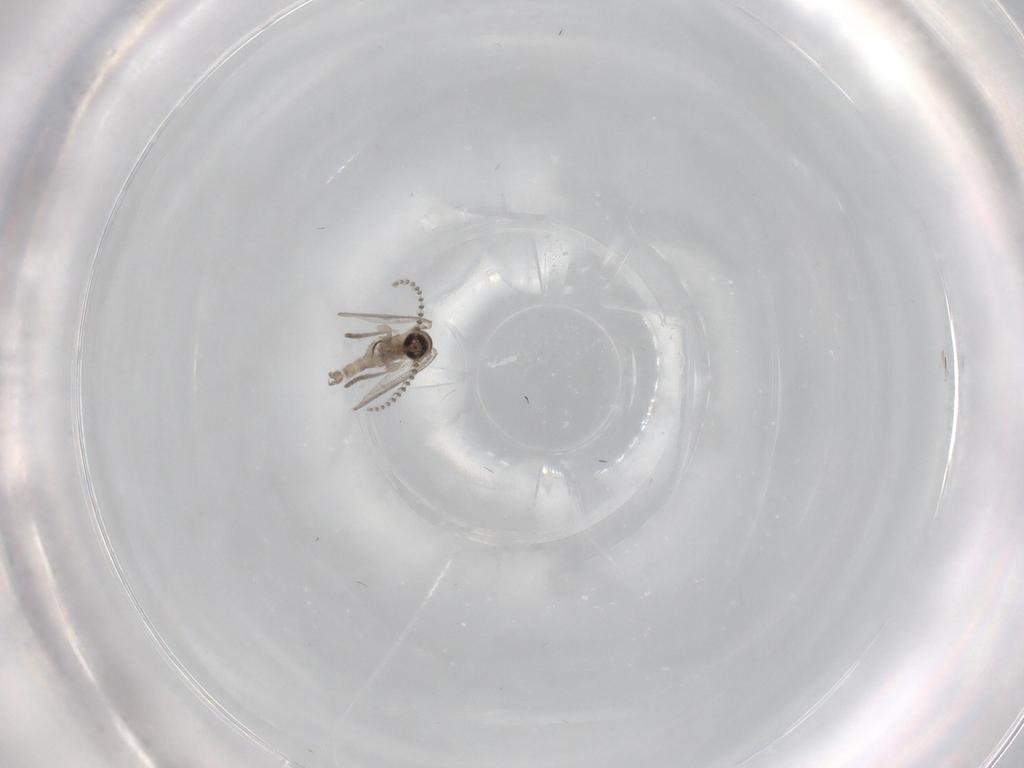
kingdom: Animalia
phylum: Arthropoda
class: Insecta
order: Diptera
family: Psychodidae
